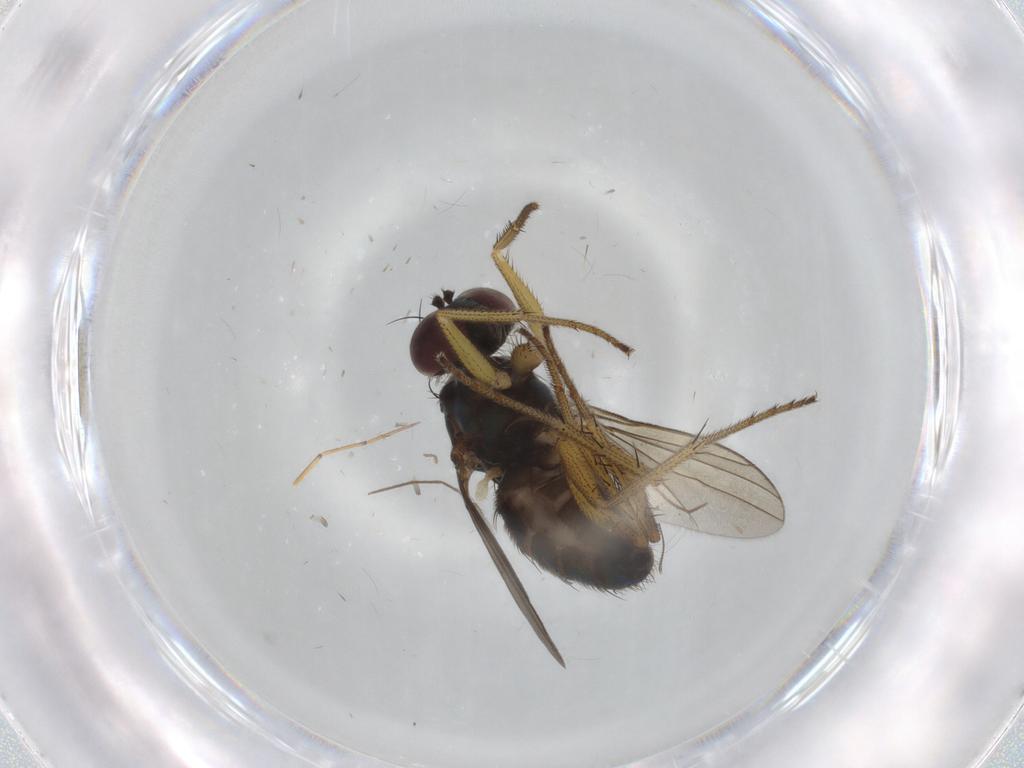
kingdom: Animalia
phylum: Arthropoda
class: Insecta
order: Diptera
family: Dolichopodidae
